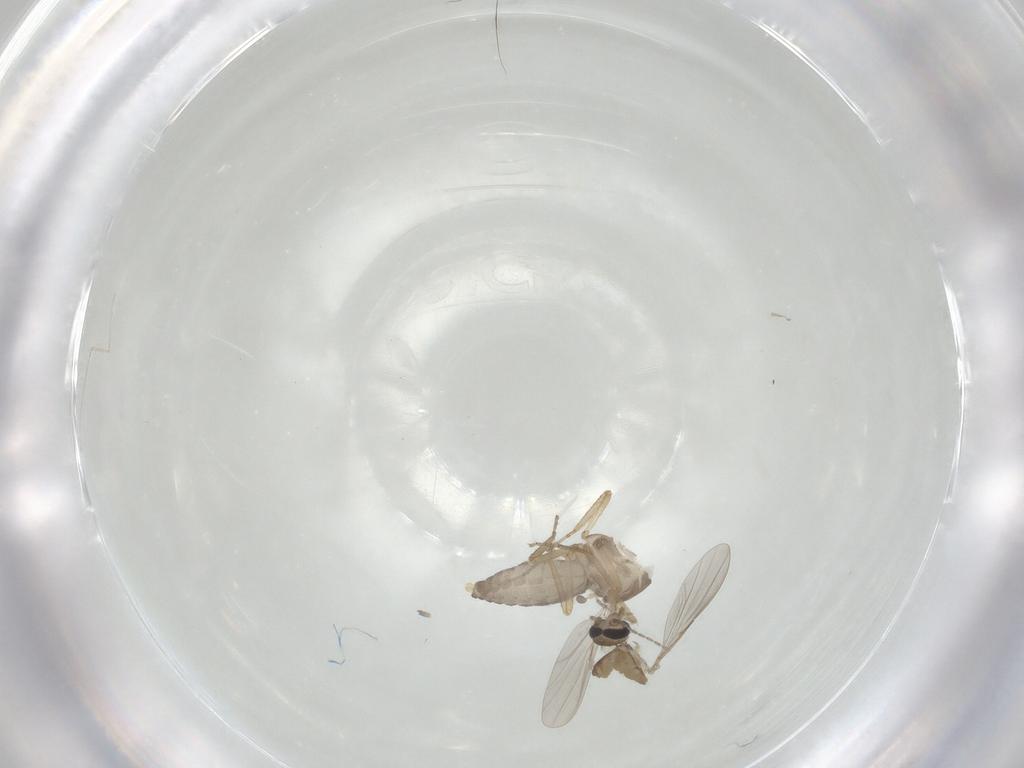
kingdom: Animalia
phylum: Arthropoda
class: Insecta
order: Diptera
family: Ceratopogonidae
